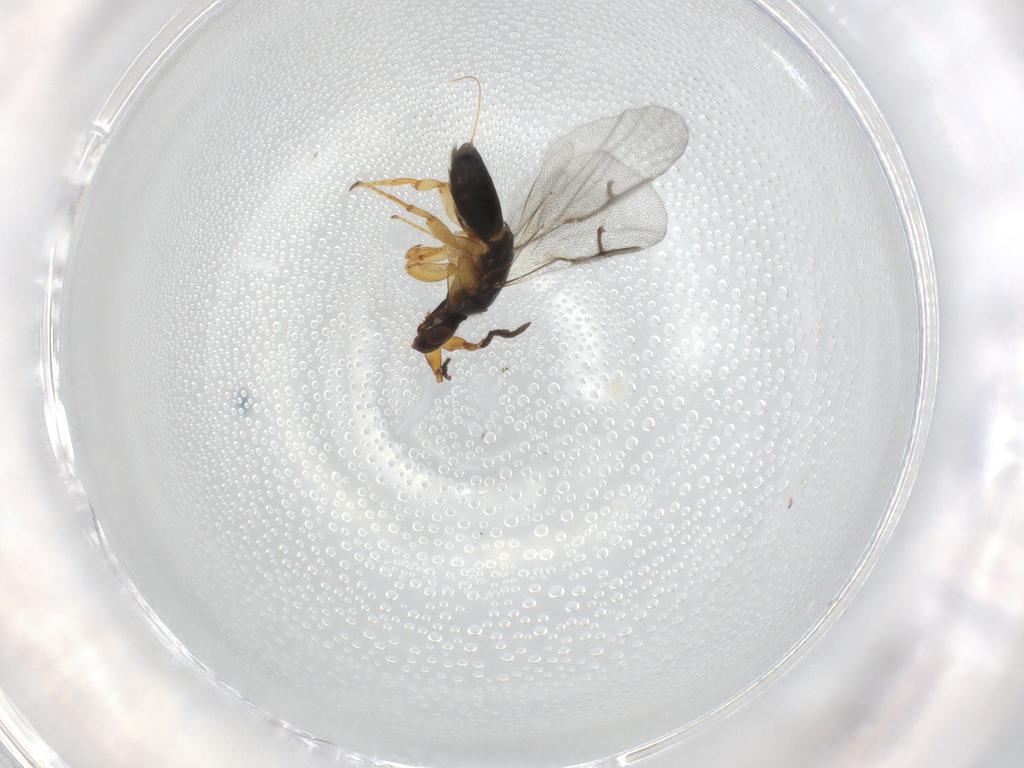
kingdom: Animalia
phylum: Arthropoda
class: Insecta
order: Hymenoptera
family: Agaonidae
